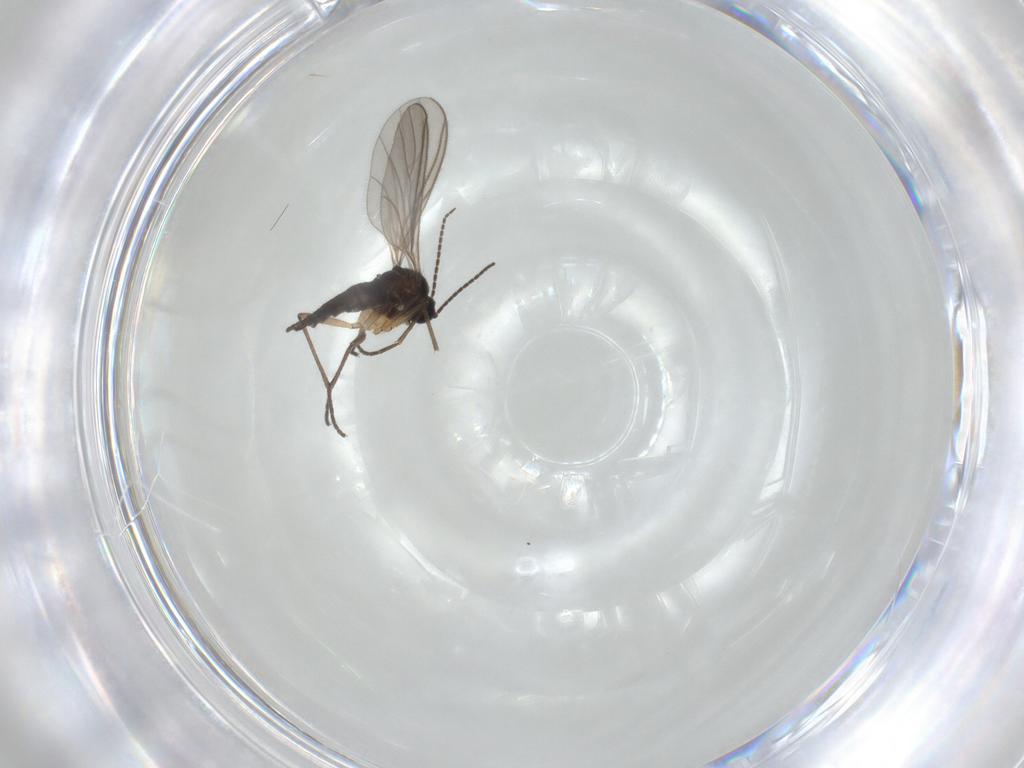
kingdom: Animalia
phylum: Arthropoda
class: Insecta
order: Diptera
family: Sciaridae
